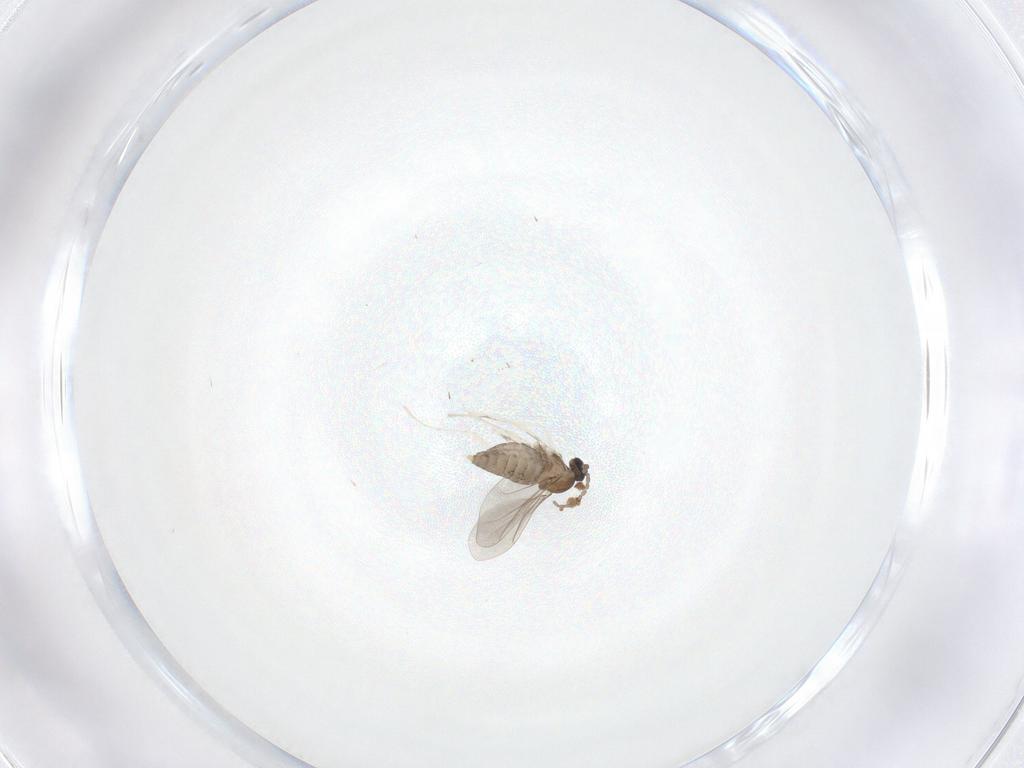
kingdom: Animalia
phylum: Arthropoda
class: Insecta
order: Diptera
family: Cecidomyiidae
